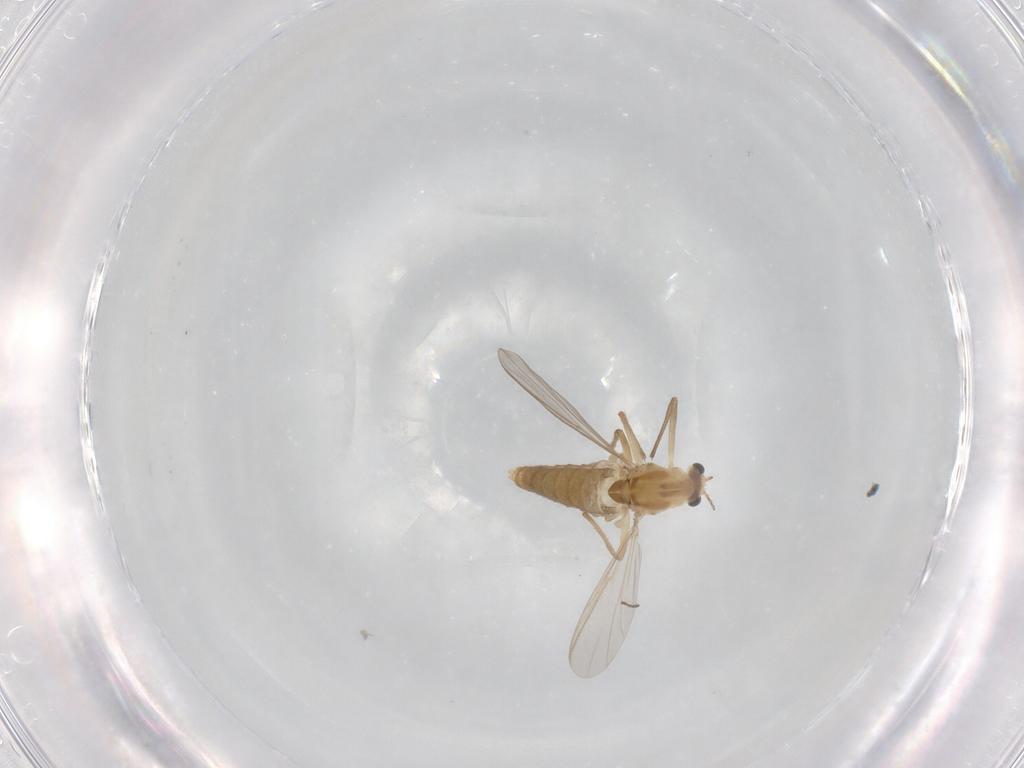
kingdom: Animalia
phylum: Arthropoda
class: Insecta
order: Diptera
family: Chironomidae
